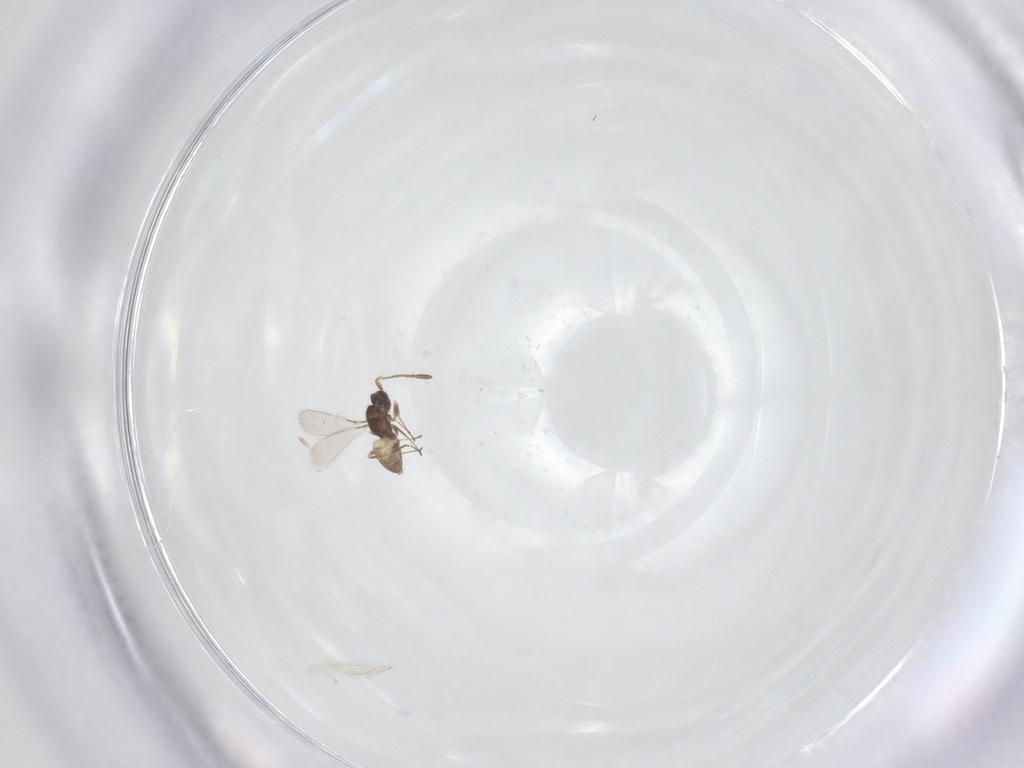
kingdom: Animalia
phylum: Arthropoda
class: Insecta
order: Hymenoptera
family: Mymaridae
